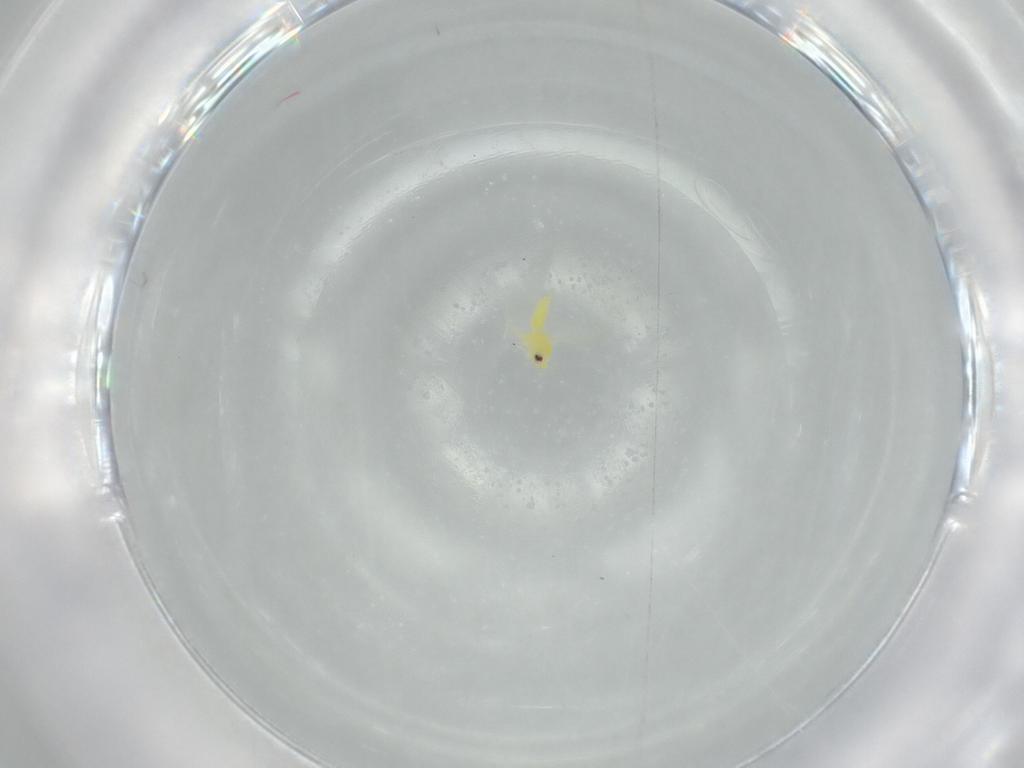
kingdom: Animalia
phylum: Arthropoda
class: Insecta
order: Hemiptera
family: Aleyrodidae
